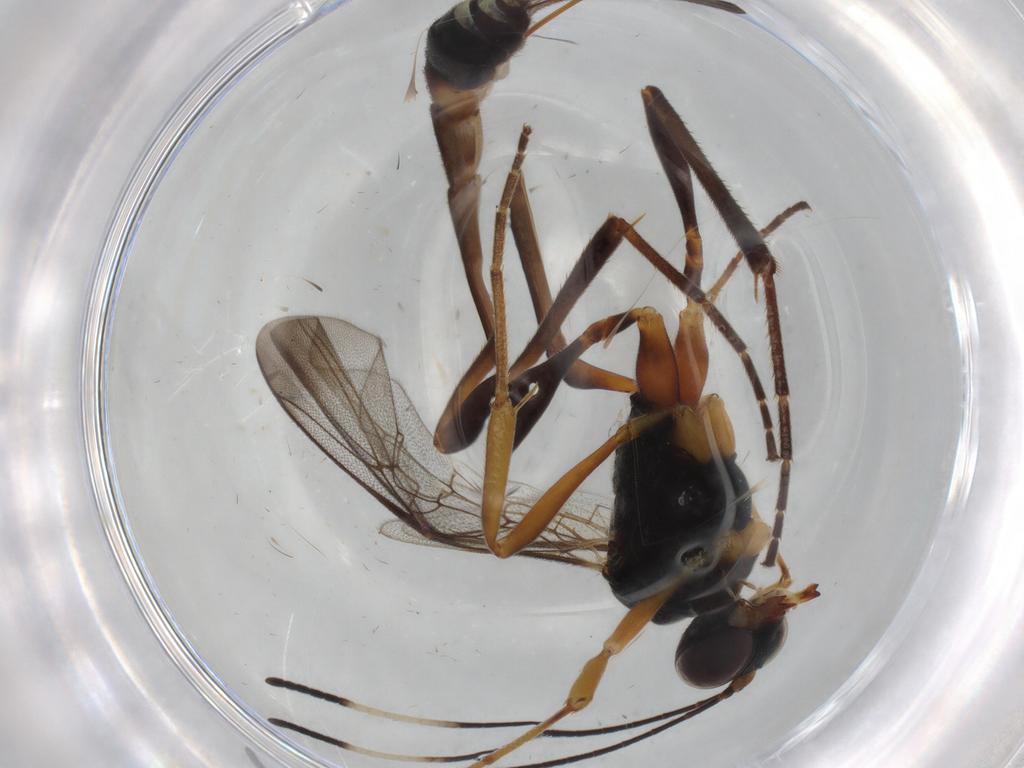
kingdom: Animalia
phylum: Arthropoda
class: Insecta
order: Hymenoptera
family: Ichneumonidae
